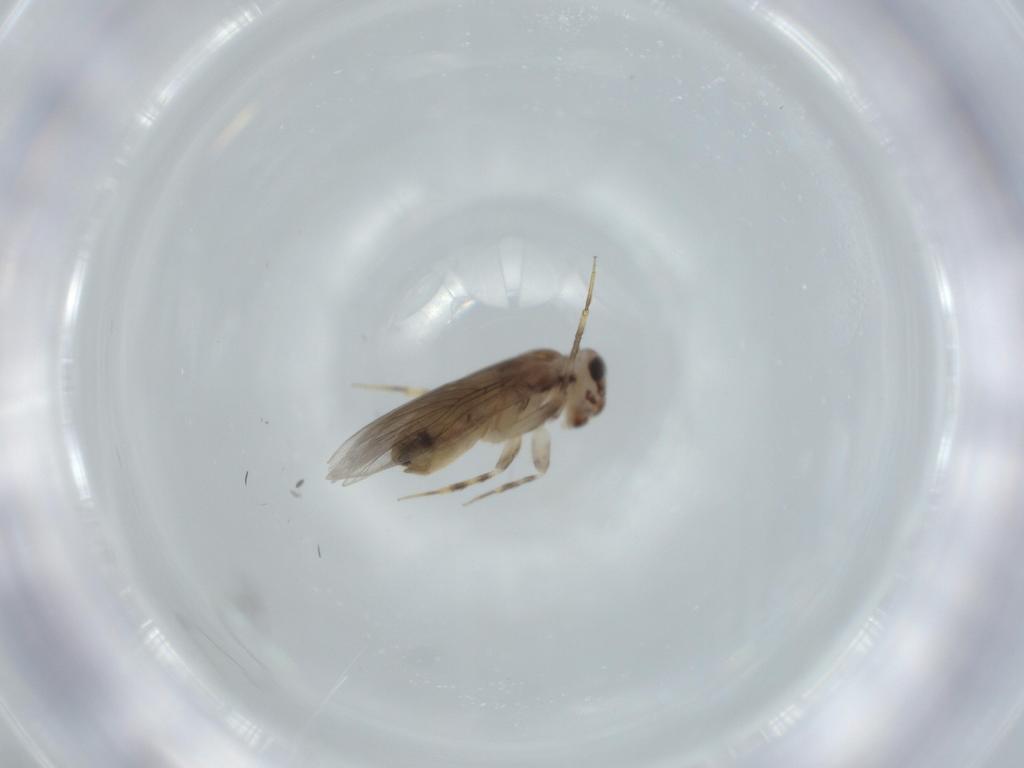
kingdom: Animalia
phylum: Arthropoda
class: Insecta
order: Psocodea
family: Lepidopsocidae
